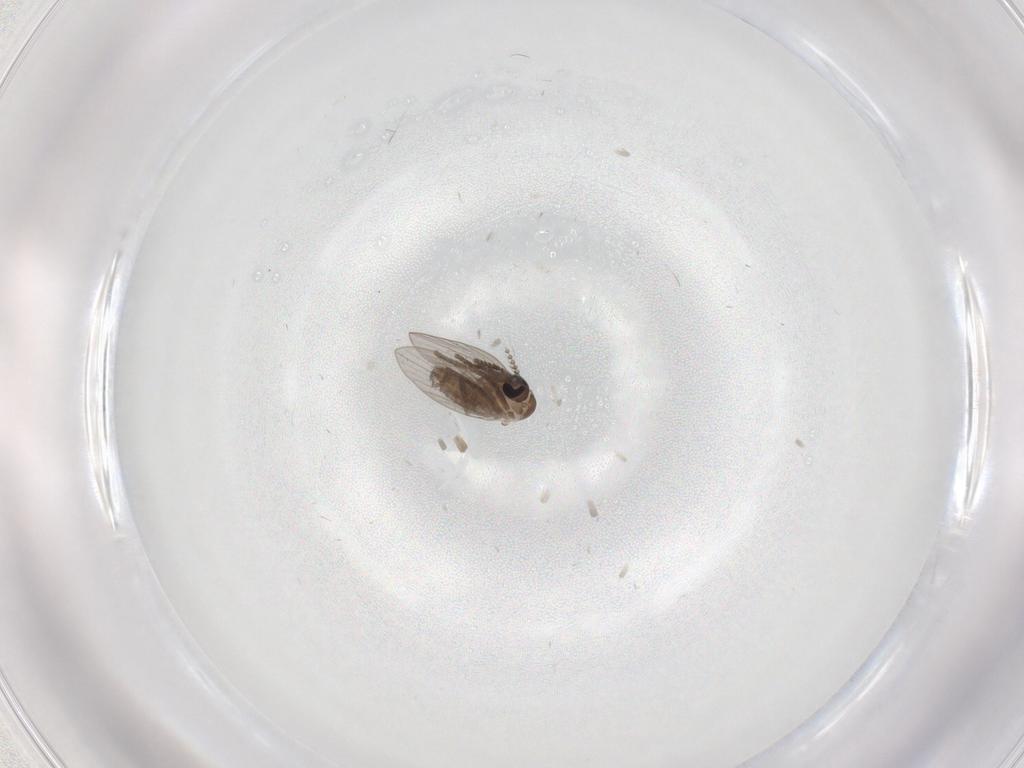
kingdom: Animalia
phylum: Arthropoda
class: Insecta
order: Diptera
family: Psychodidae
